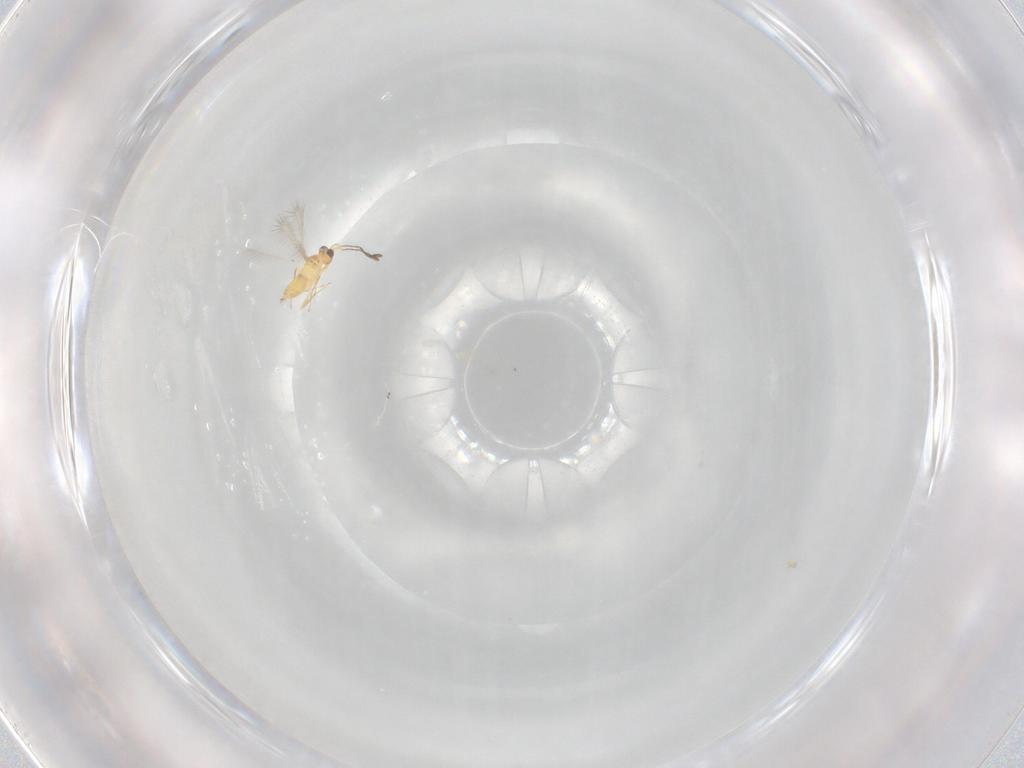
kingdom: Animalia
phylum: Arthropoda
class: Insecta
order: Hymenoptera
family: Mymaridae
